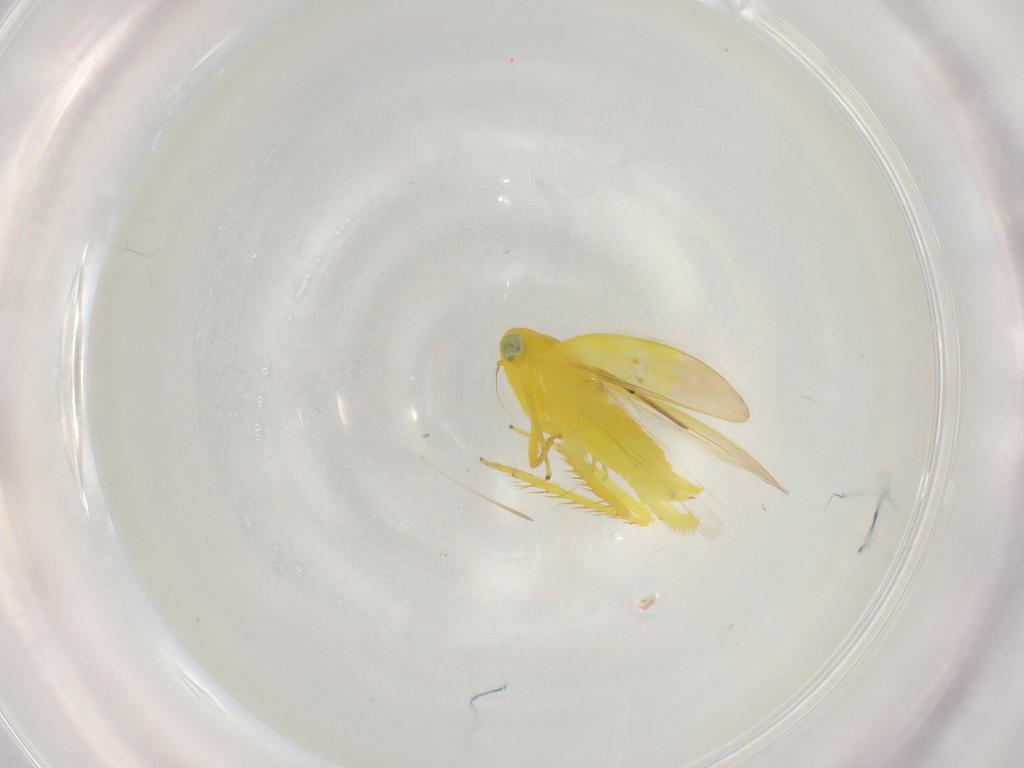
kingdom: Animalia
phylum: Arthropoda
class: Insecta
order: Hemiptera
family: Cicadellidae
